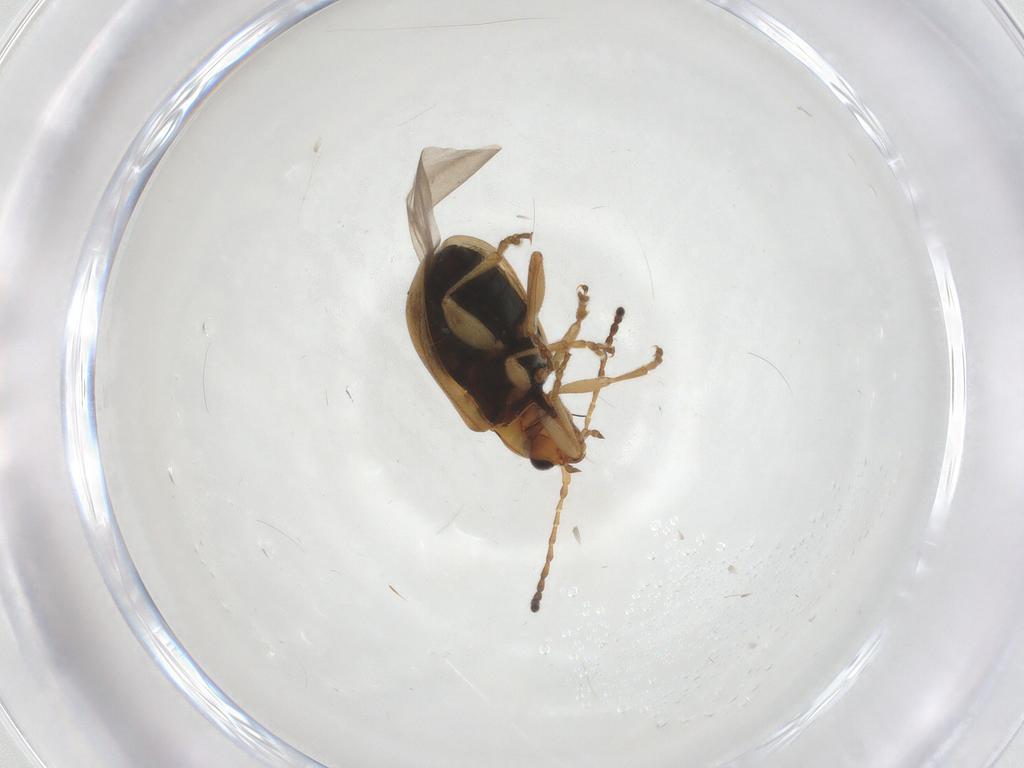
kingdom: Animalia
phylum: Arthropoda
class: Insecta
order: Coleoptera
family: Chrysomelidae
